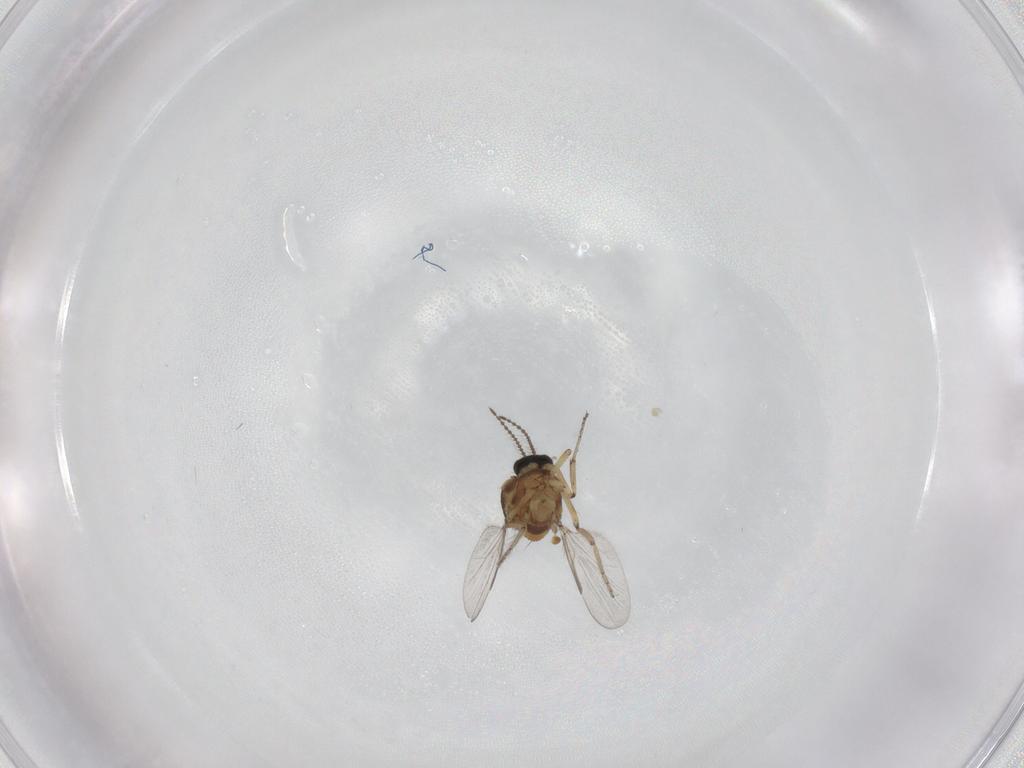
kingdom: Animalia
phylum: Arthropoda
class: Insecta
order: Diptera
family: Ceratopogonidae
